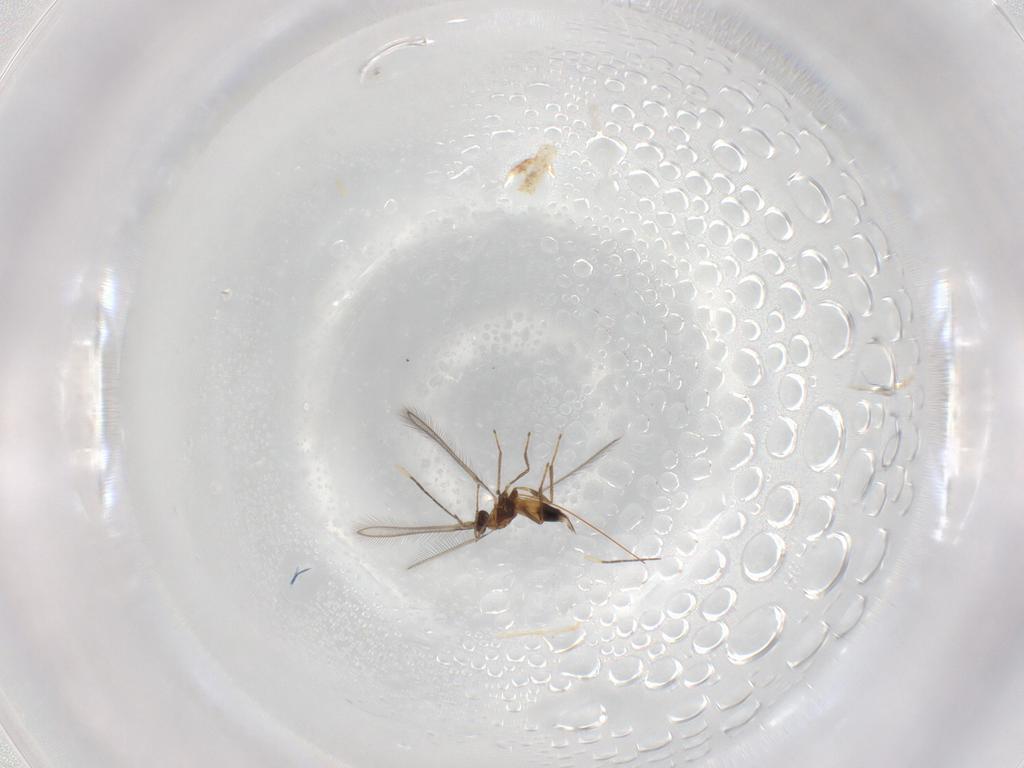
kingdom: Animalia
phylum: Arthropoda
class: Insecta
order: Hymenoptera
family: Mymaridae
